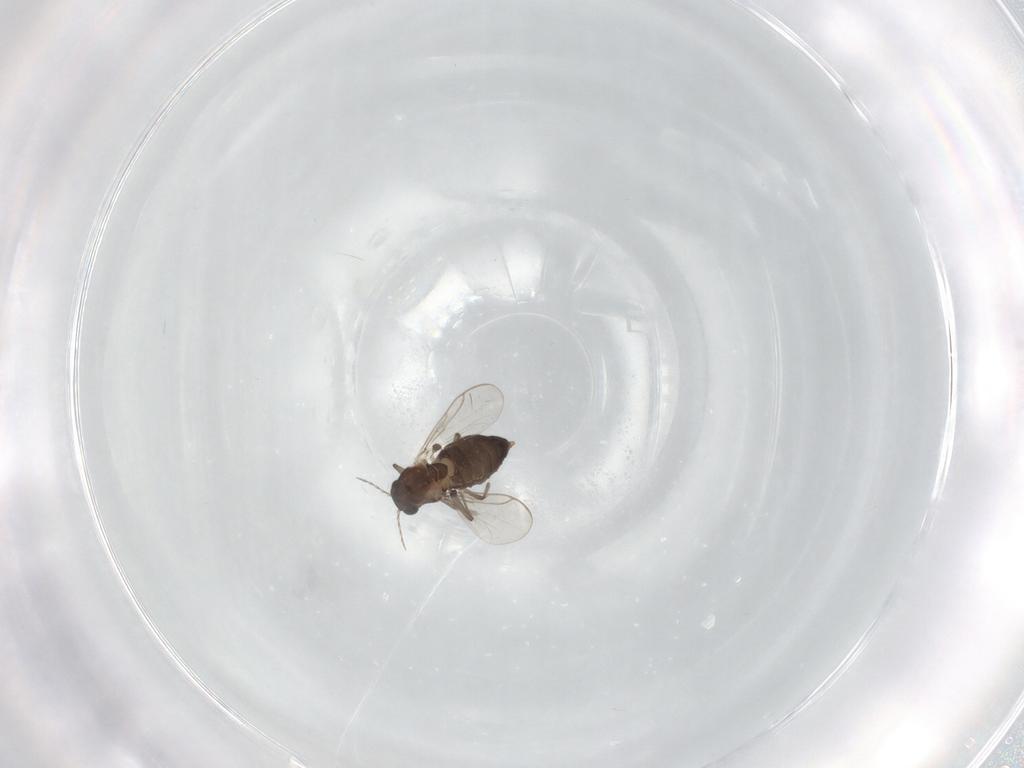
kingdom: Animalia
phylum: Arthropoda
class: Insecta
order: Diptera
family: Chironomidae
